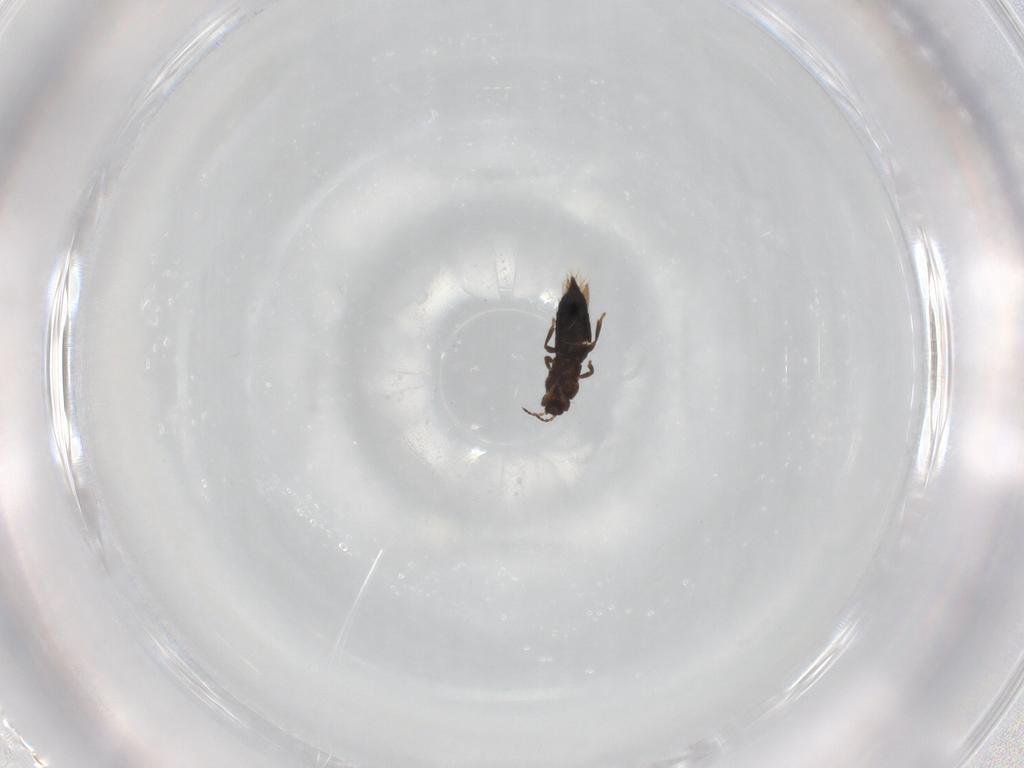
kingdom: Animalia
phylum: Arthropoda
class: Insecta
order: Thysanoptera
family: Thripidae
